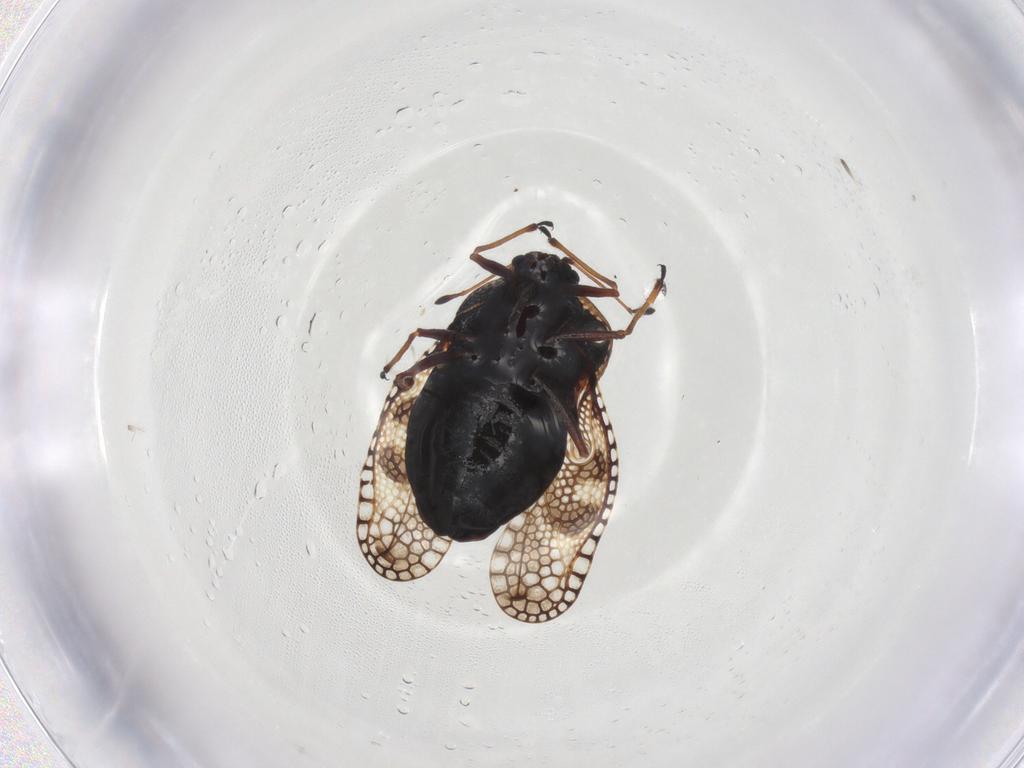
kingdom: Animalia
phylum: Arthropoda
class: Insecta
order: Hemiptera
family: Tingidae
